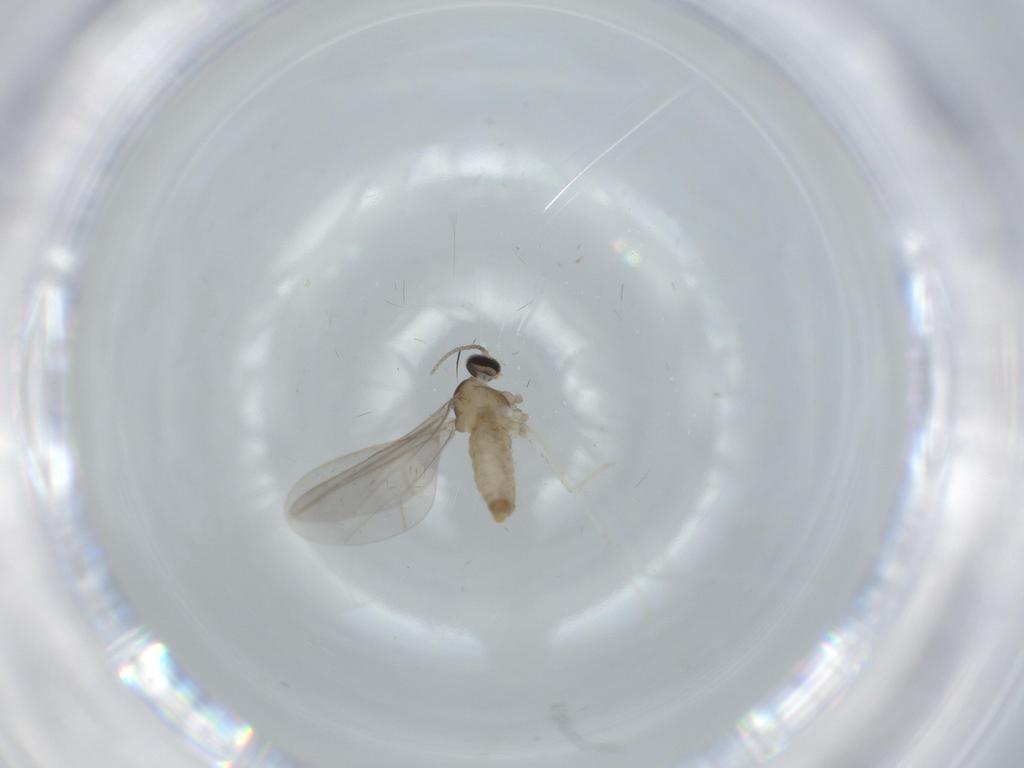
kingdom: Animalia
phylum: Arthropoda
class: Insecta
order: Diptera
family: Cecidomyiidae
